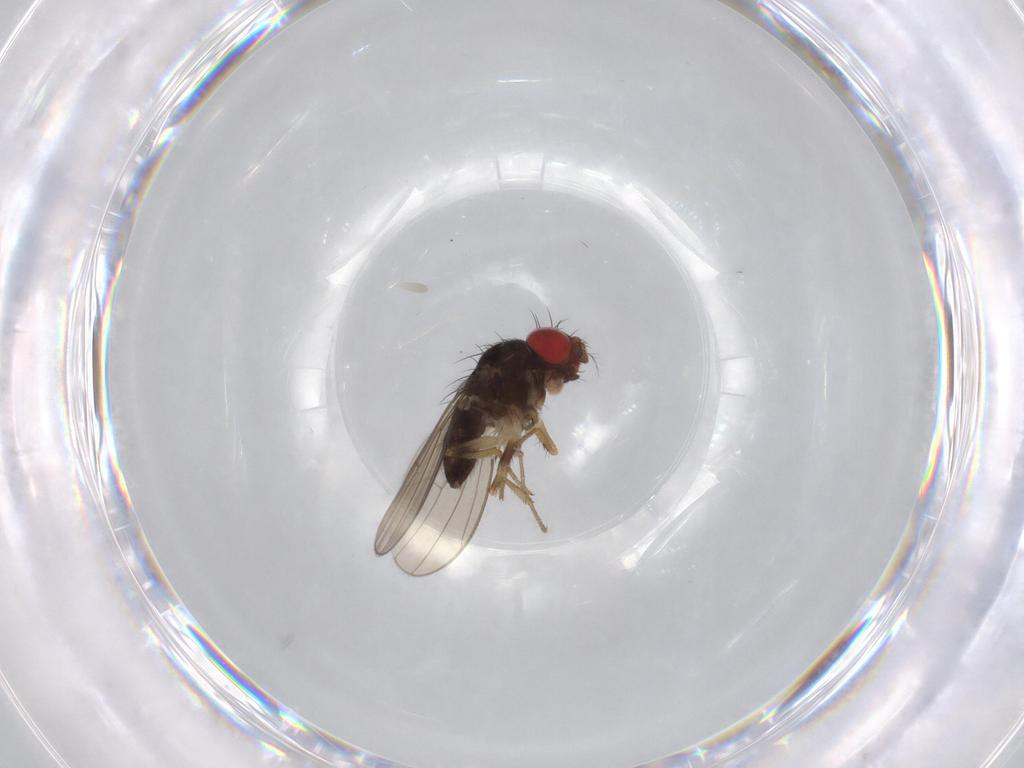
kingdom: Animalia
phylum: Arthropoda
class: Insecta
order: Diptera
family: Drosophilidae
